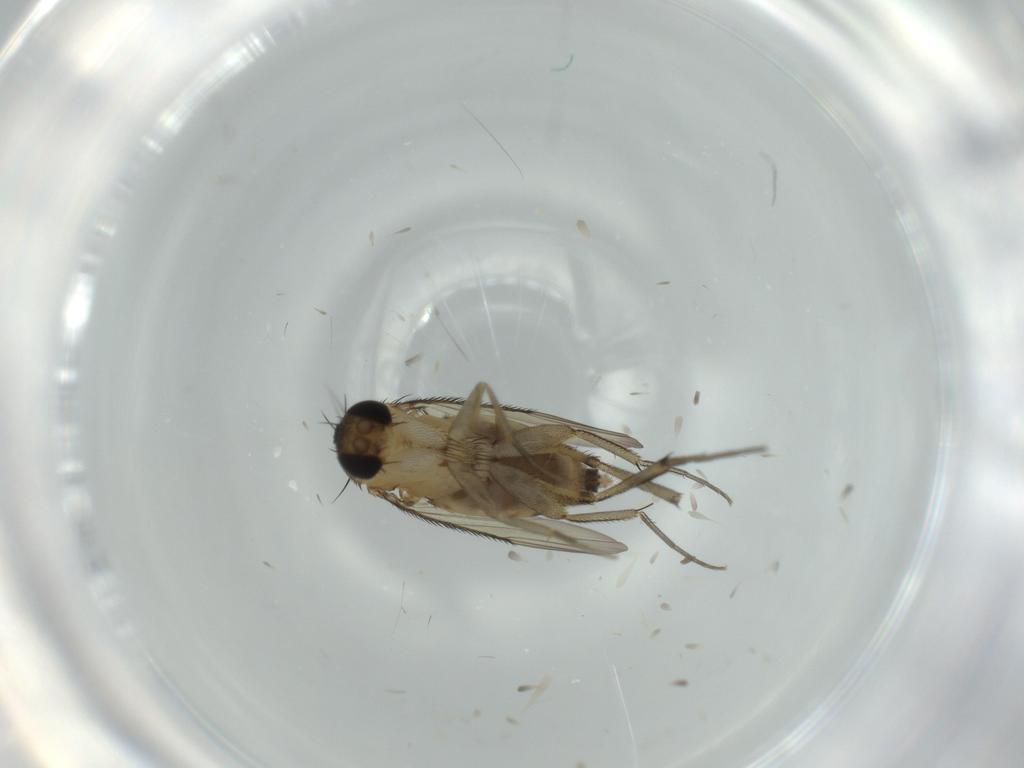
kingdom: Animalia
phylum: Arthropoda
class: Insecta
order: Diptera
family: Phoridae
